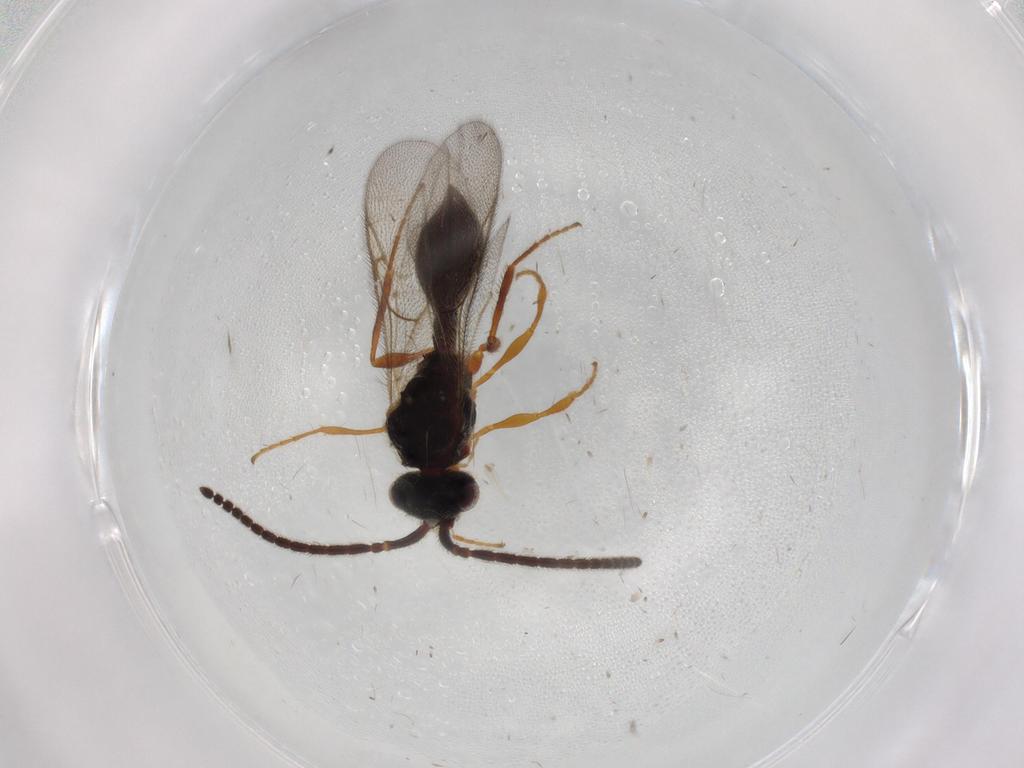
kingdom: Animalia
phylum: Arthropoda
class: Insecta
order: Hymenoptera
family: Diapriidae
